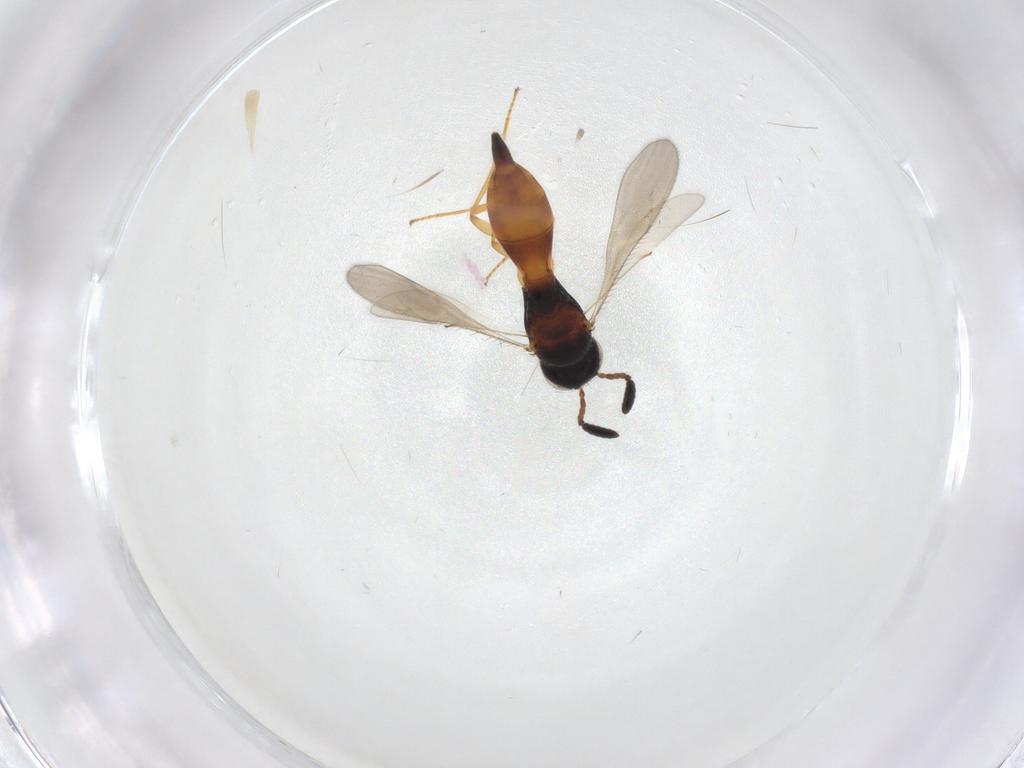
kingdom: Animalia
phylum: Arthropoda
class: Insecta
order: Hymenoptera
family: Scelionidae
